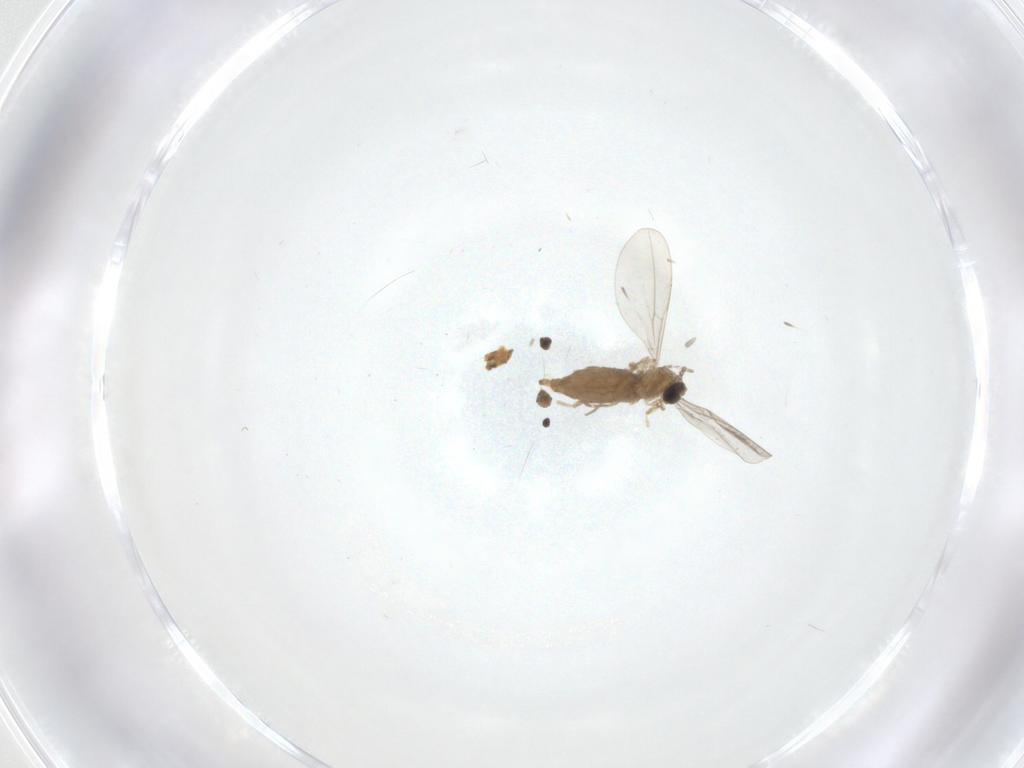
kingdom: Animalia
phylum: Arthropoda
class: Insecta
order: Diptera
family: Cecidomyiidae
